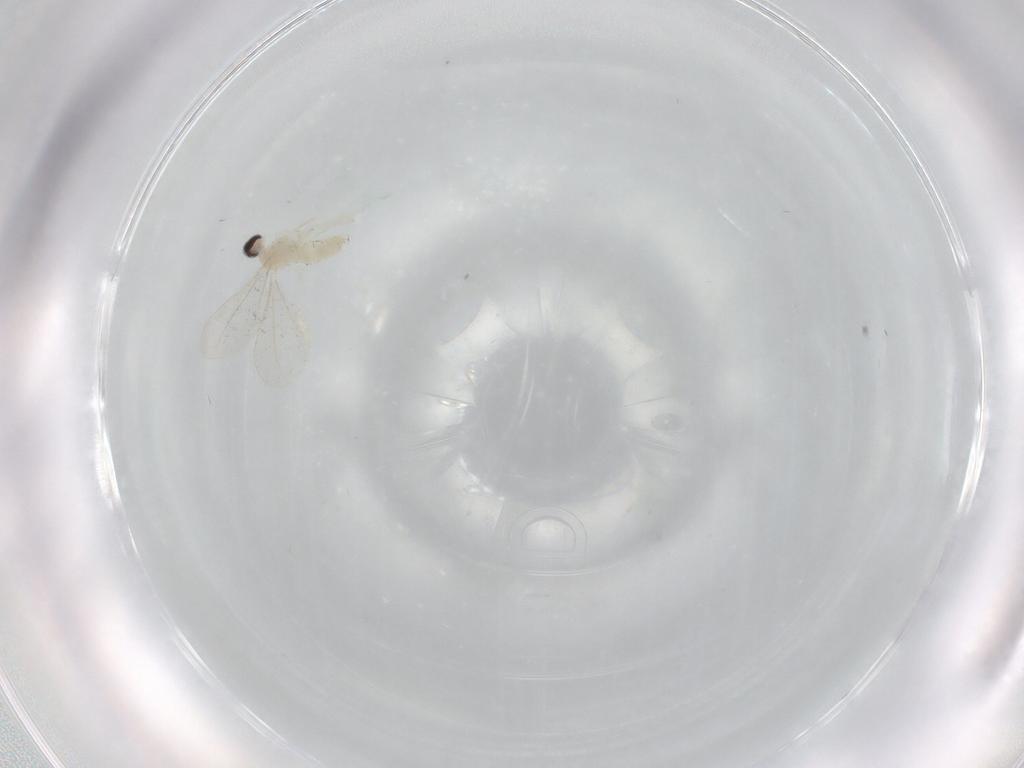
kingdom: Animalia
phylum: Arthropoda
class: Insecta
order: Diptera
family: Cecidomyiidae
